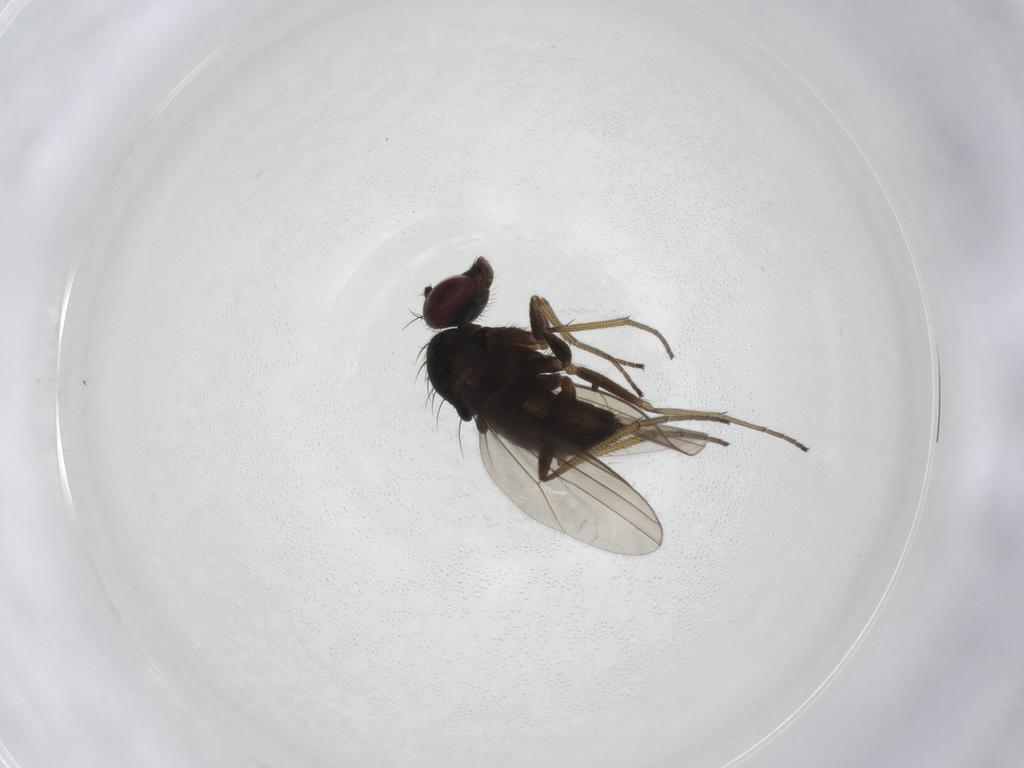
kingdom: Animalia
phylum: Arthropoda
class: Insecta
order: Diptera
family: Dolichopodidae
